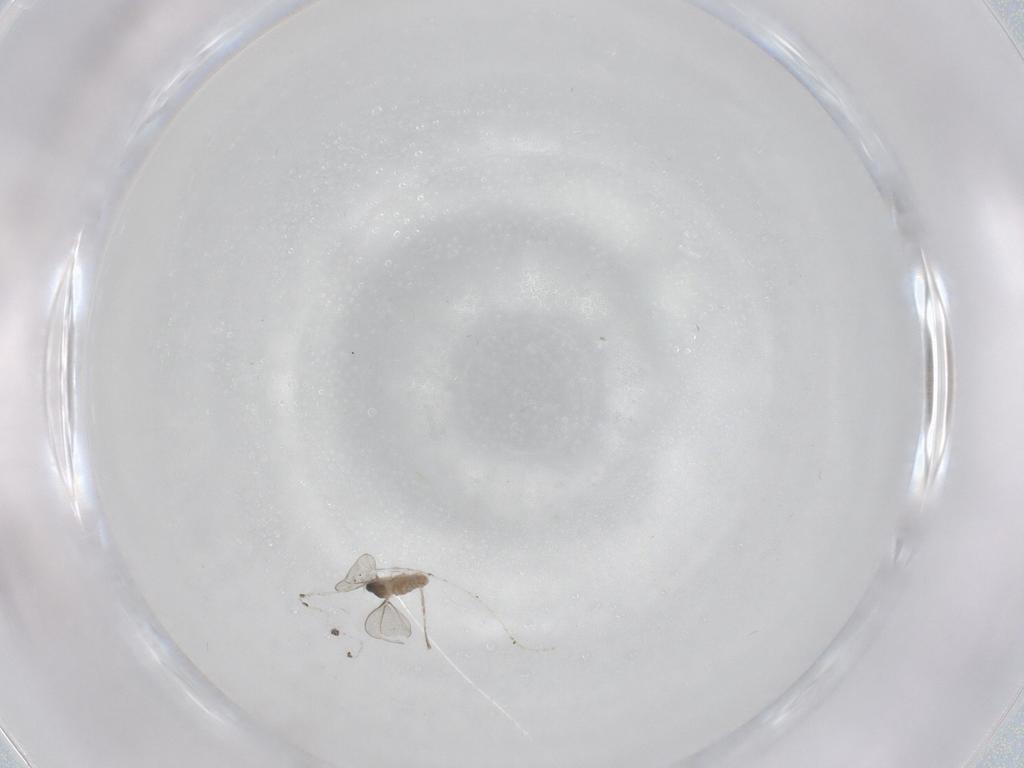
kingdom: Animalia
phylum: Arthropoda
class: Insecta
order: Diptera
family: Cecidomyiidae
